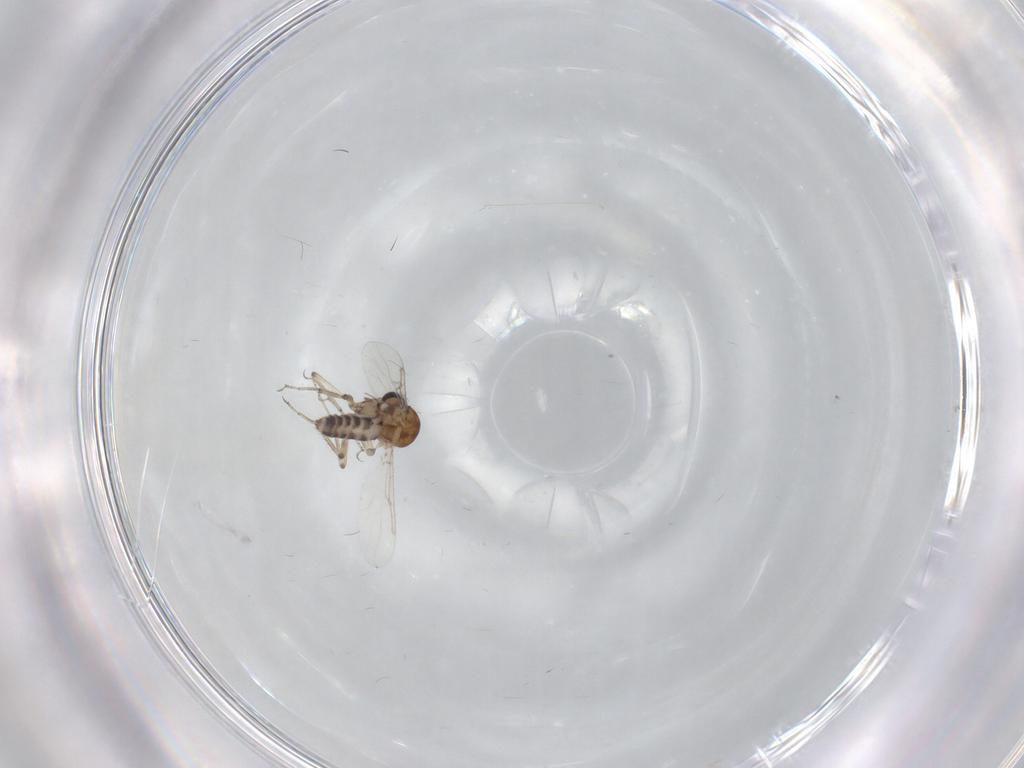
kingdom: Animalia
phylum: Arthropoda
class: Insecta
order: Diptera
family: Ceratopogonidae
